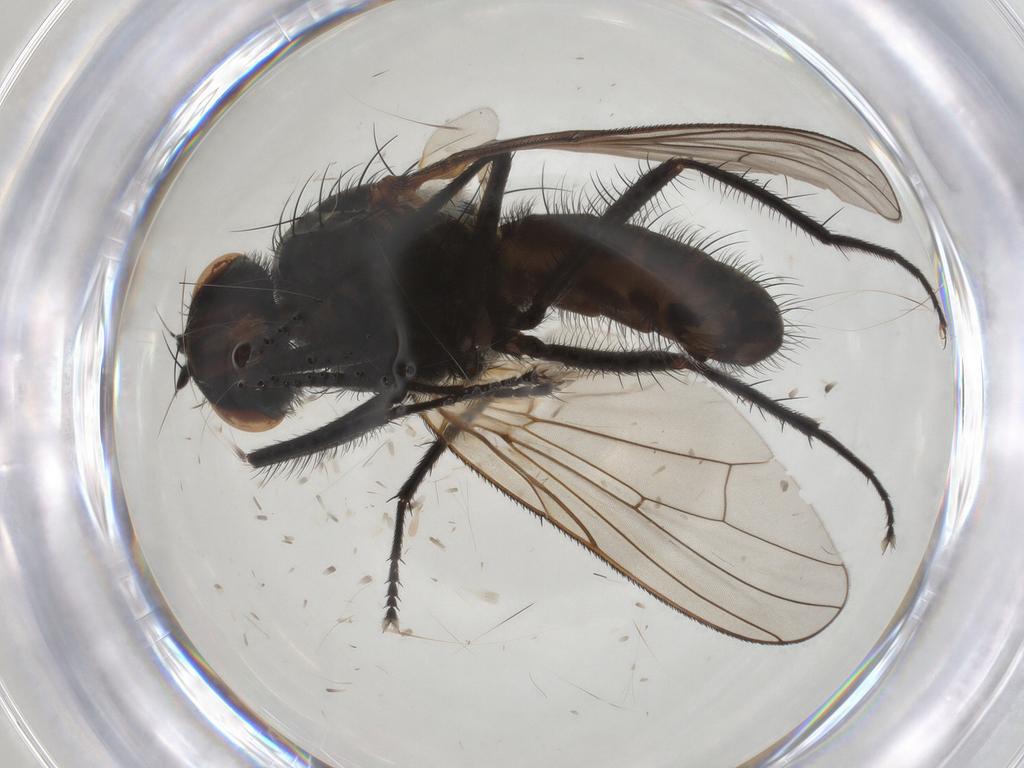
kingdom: Animalia
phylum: Arthropoda
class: Insecta
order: Diptera
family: Anthomyiidae
